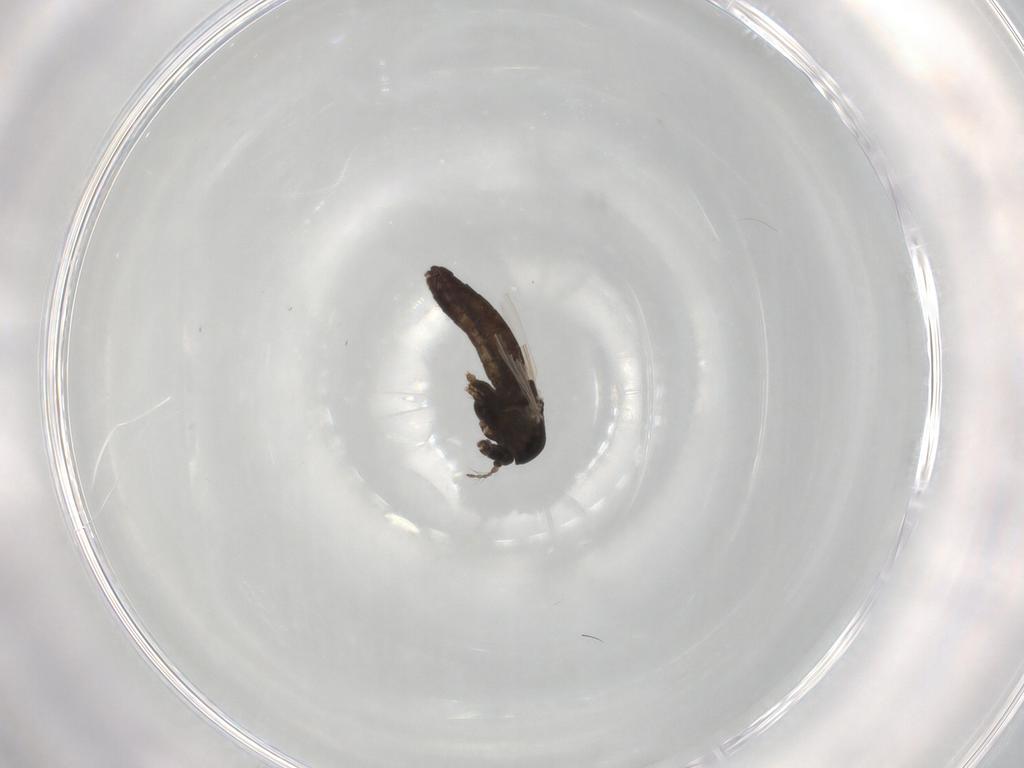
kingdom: Animalia
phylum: Arthropoda
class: Insecta
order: Diptera
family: Chironomidae
